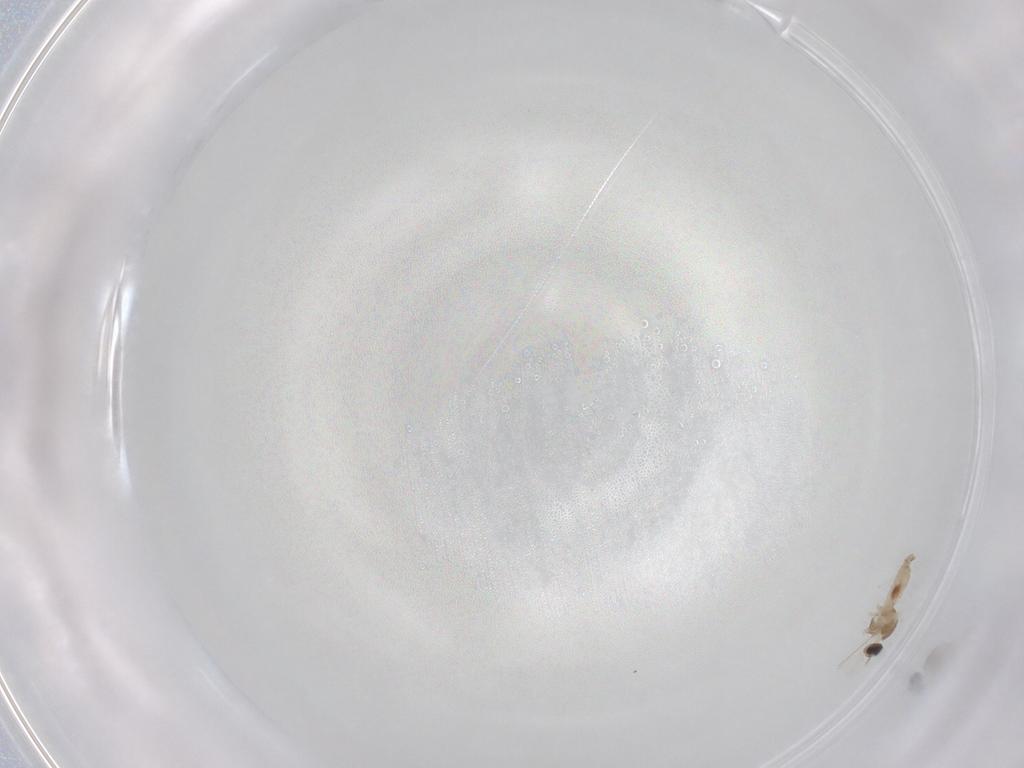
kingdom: Animalia
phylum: Arthropoda
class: Insecta
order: Diptera
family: Cecidomyiidae
